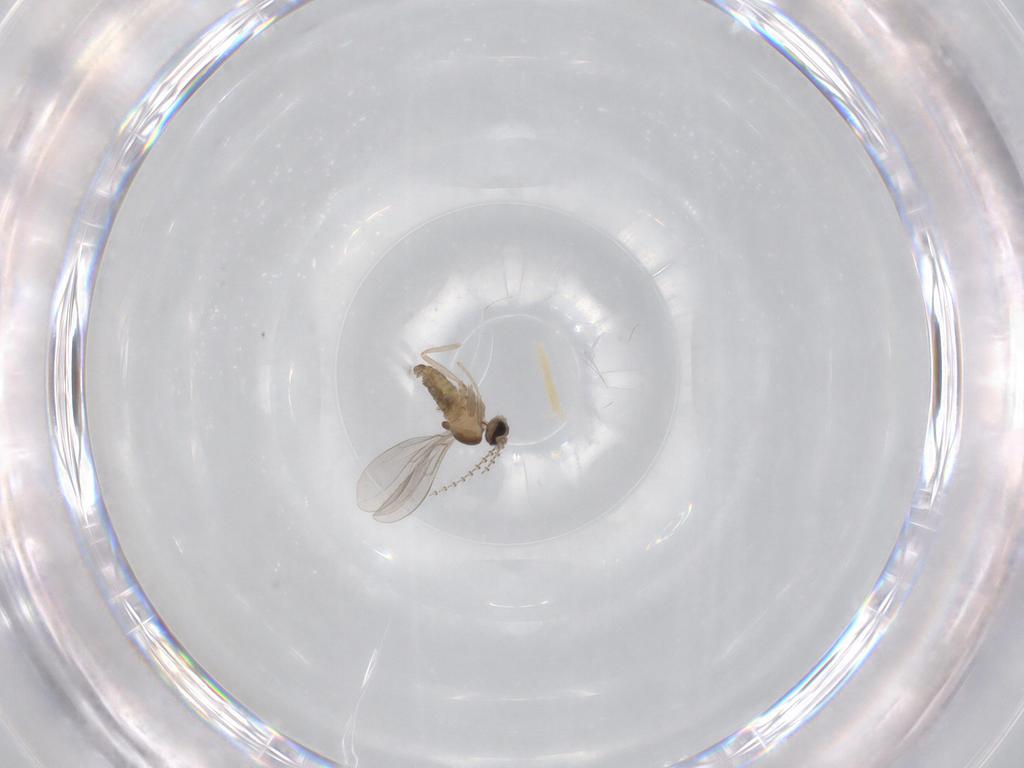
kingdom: Animalia
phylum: Arthropoda
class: Insecta
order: Diptera
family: Cecidomyiidae
